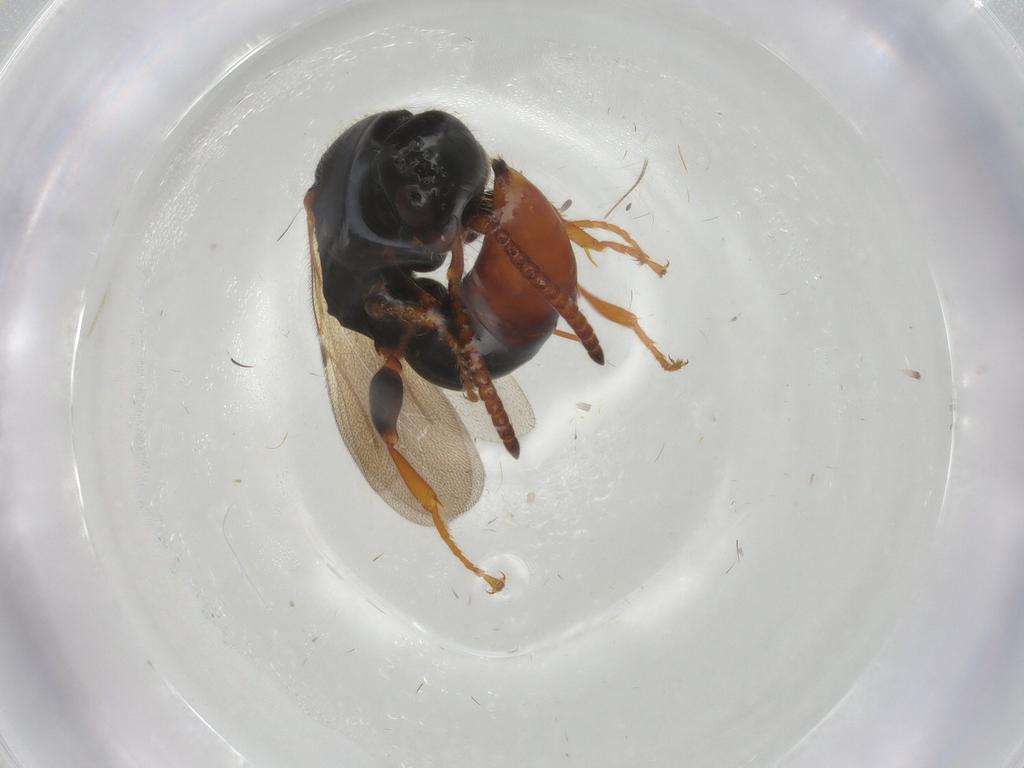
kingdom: Animalia
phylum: Arthropoda
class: Insecta
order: Hymenoptera
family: Bethylidae
